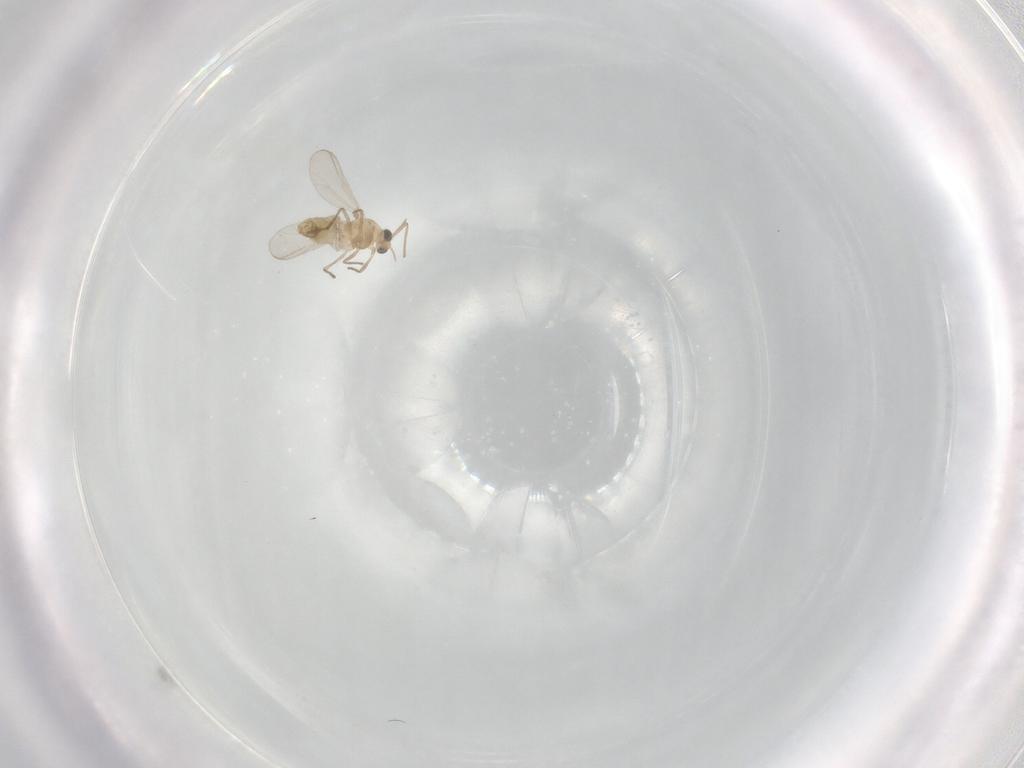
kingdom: Animalia
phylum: Arthropoda
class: Insecta
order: Diptera
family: Chironomidae
